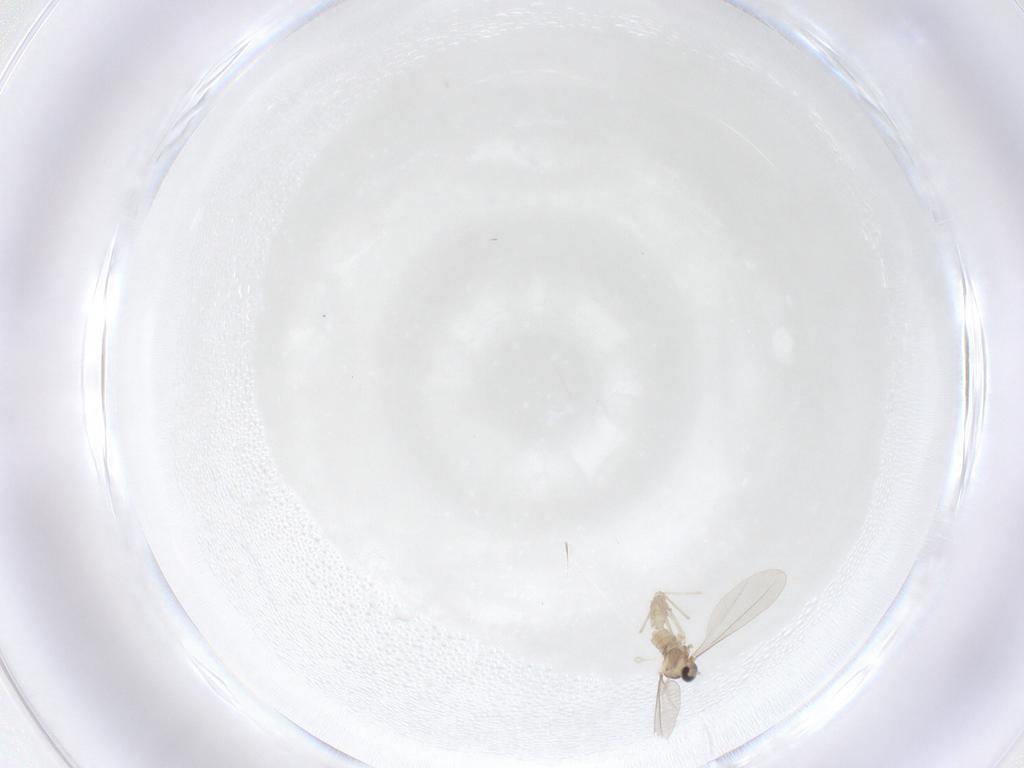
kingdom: Animalia
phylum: Arthropoda
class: Insecta
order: Diptera
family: Cecidomyiidae
